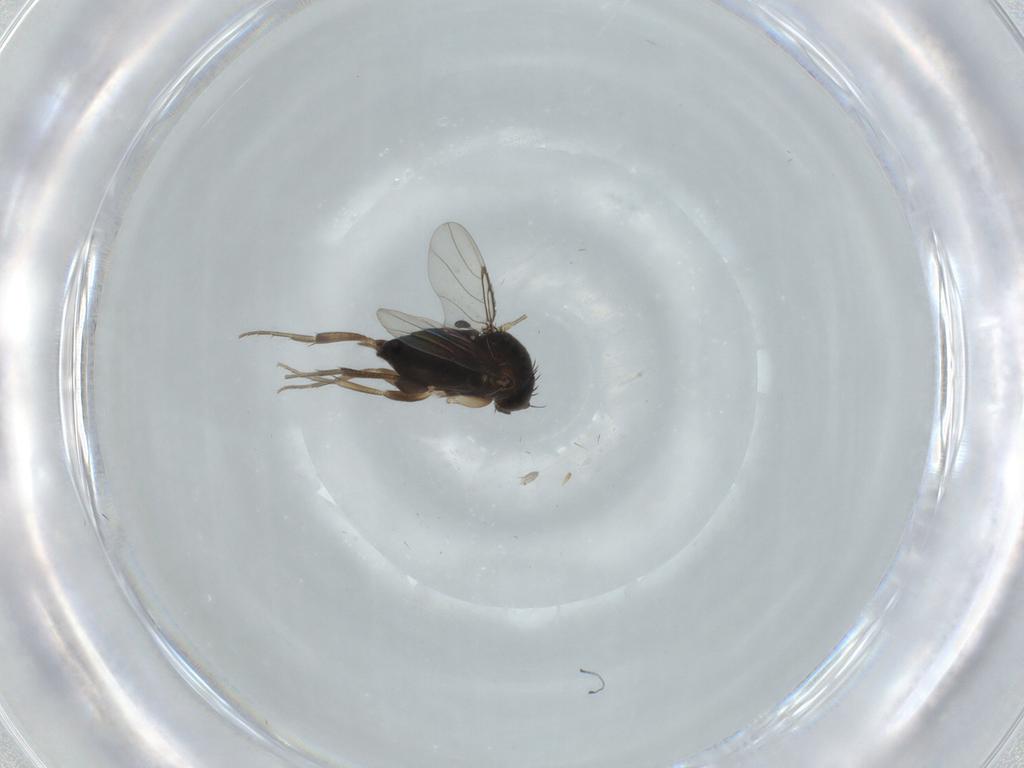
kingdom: Animalia
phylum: Arthropoda
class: Insecta
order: Diptera
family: Phoridae
